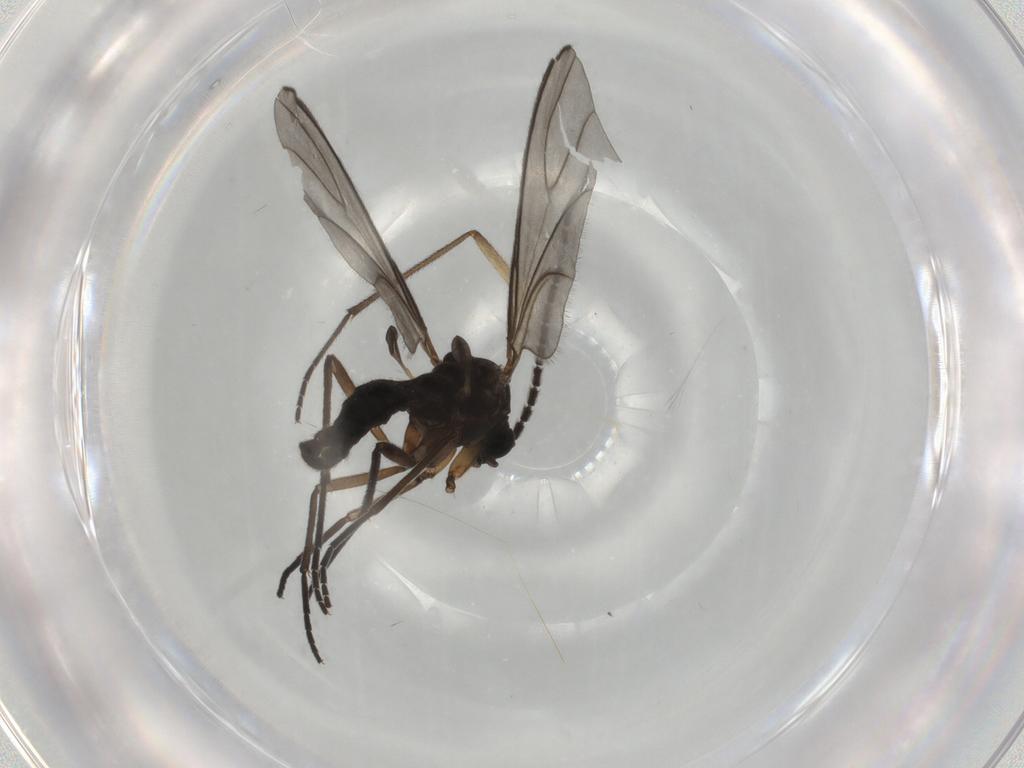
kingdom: Animalia
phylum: Arthropoda
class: Insecta
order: Diptera
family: Sciaridae
